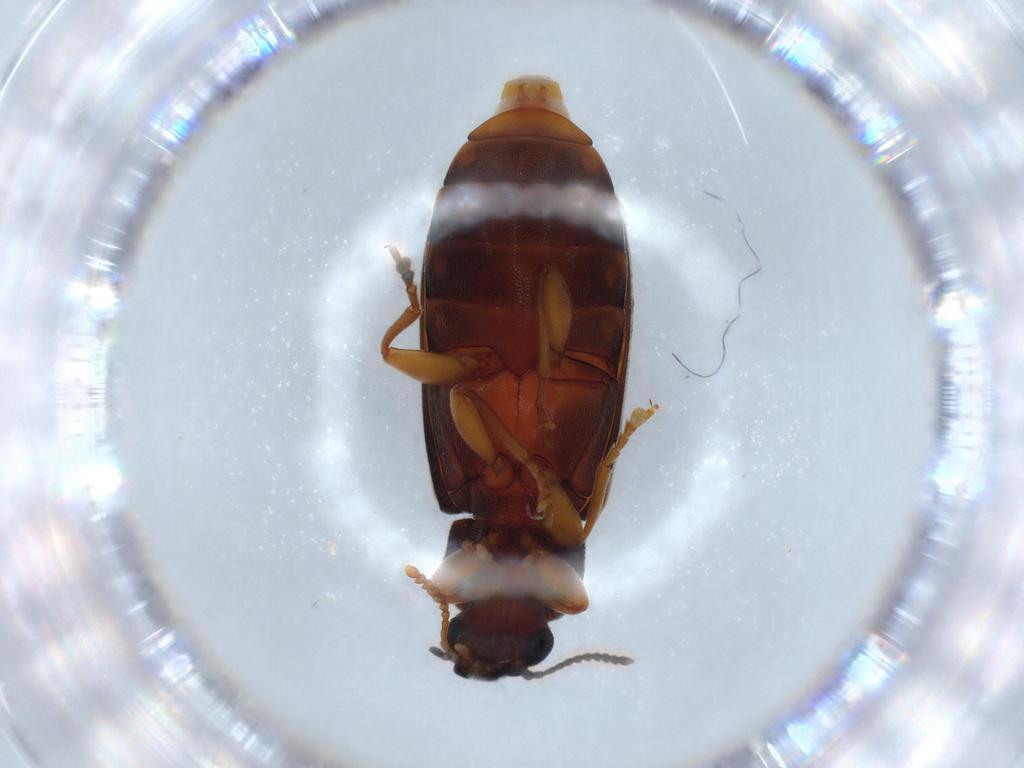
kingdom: Animalia
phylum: Arthropoda
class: Insecta
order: Coleoptera
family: Mycteridae
